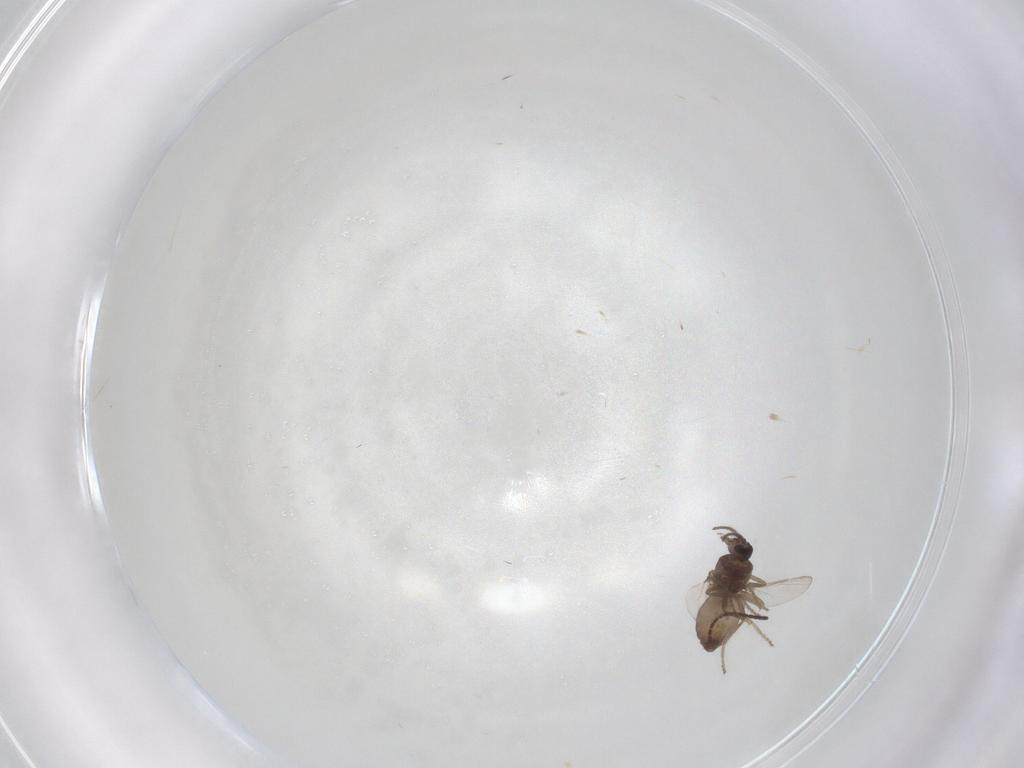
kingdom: Animalia
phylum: Arthropoda
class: Insecta
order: Diptera
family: Ceratopogonidae
